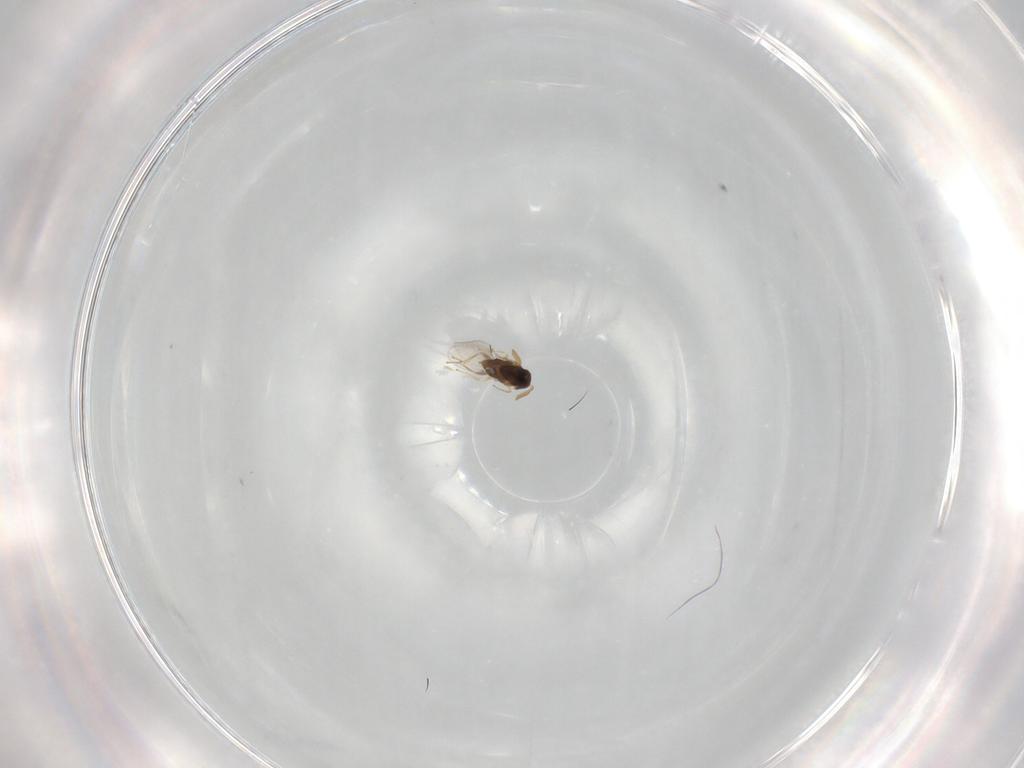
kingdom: Animalia
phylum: Arthropoda
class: Insecta
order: Hymenoptera
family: Encyrtidae
